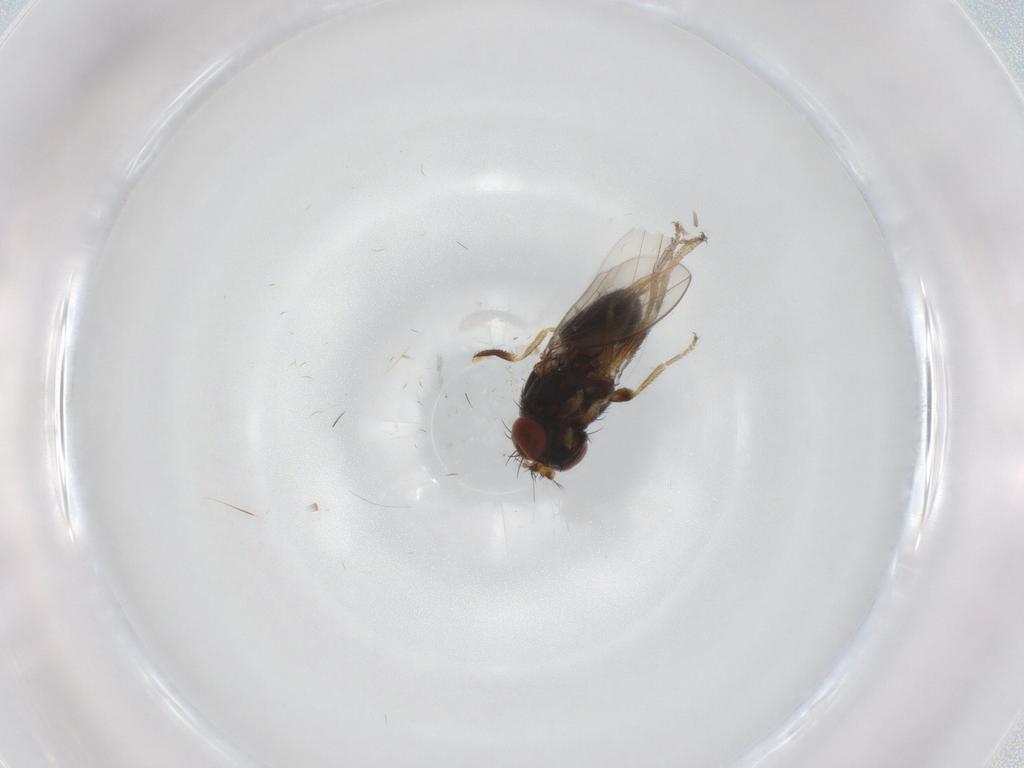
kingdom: Animalia
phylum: Arthropoda
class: Insecta
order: Diptera
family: Ephydridae
